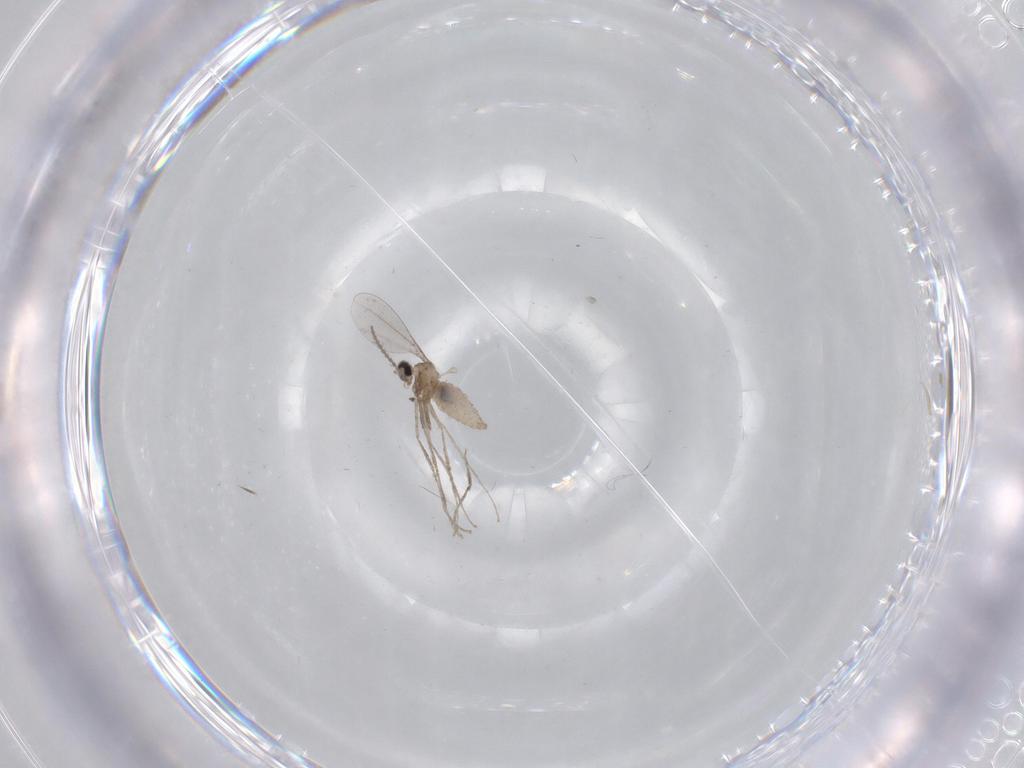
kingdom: Animalia
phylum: Arthropoda
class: Insecta
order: Diptera
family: Cecidomyiidae
